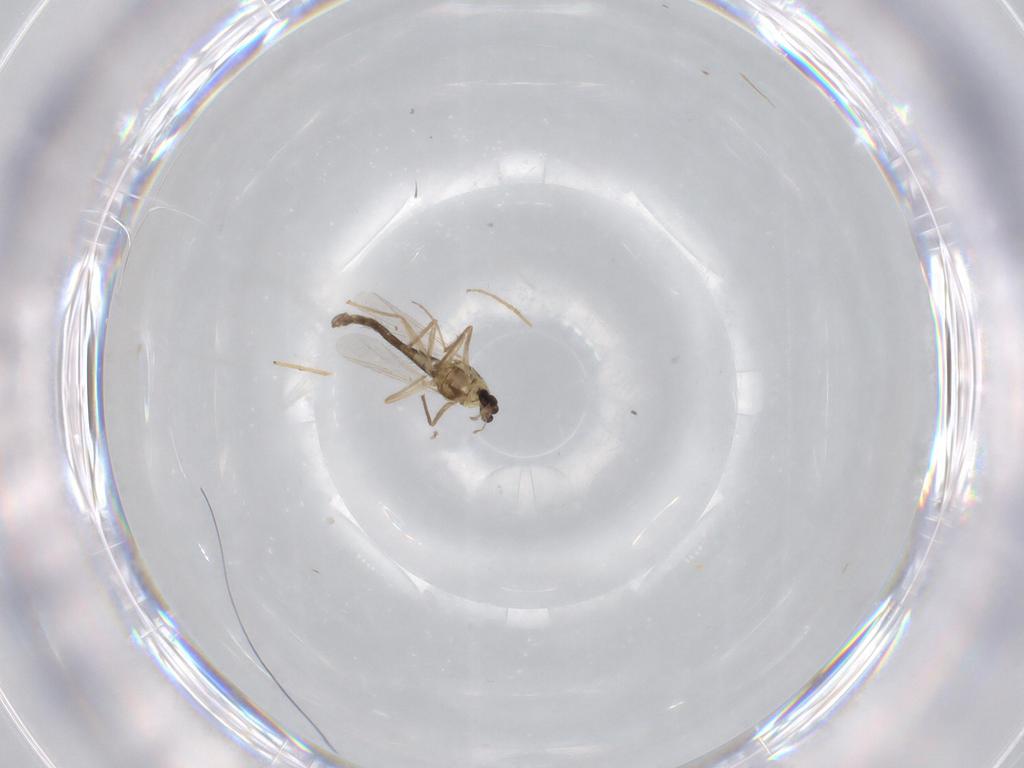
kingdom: Animalia
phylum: Arthropoda
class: Insecta
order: Diptera
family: Chironomidae
